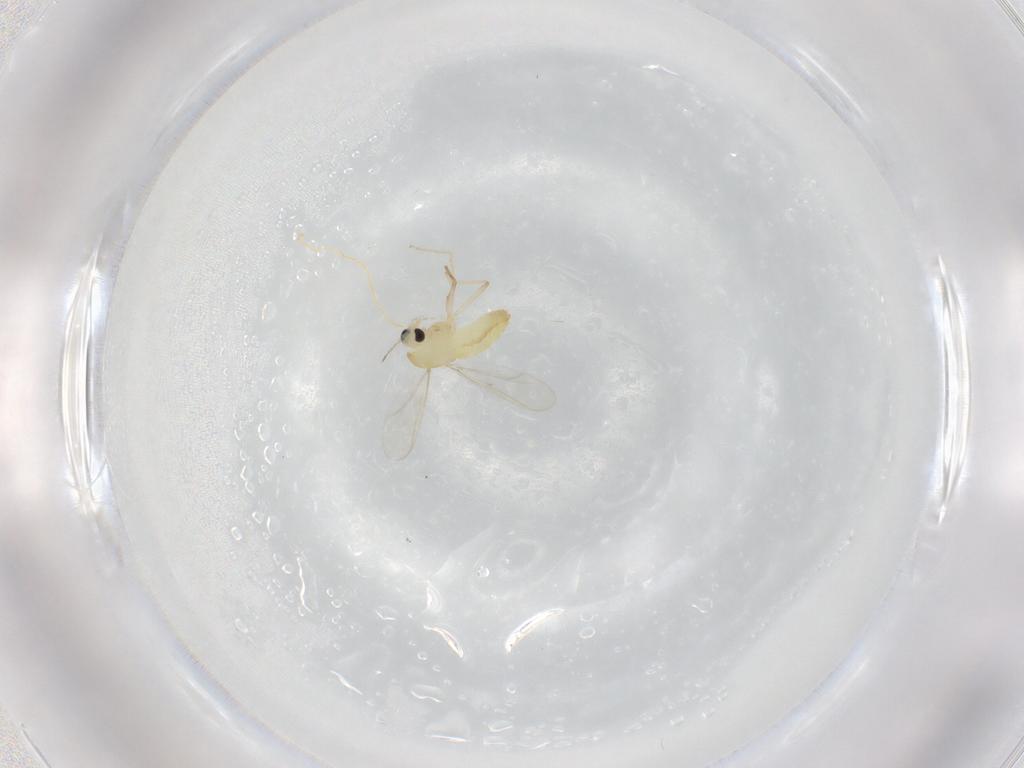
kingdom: Animalia
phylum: Arthropoda
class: Insecta
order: Diptera
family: Chironomidae
